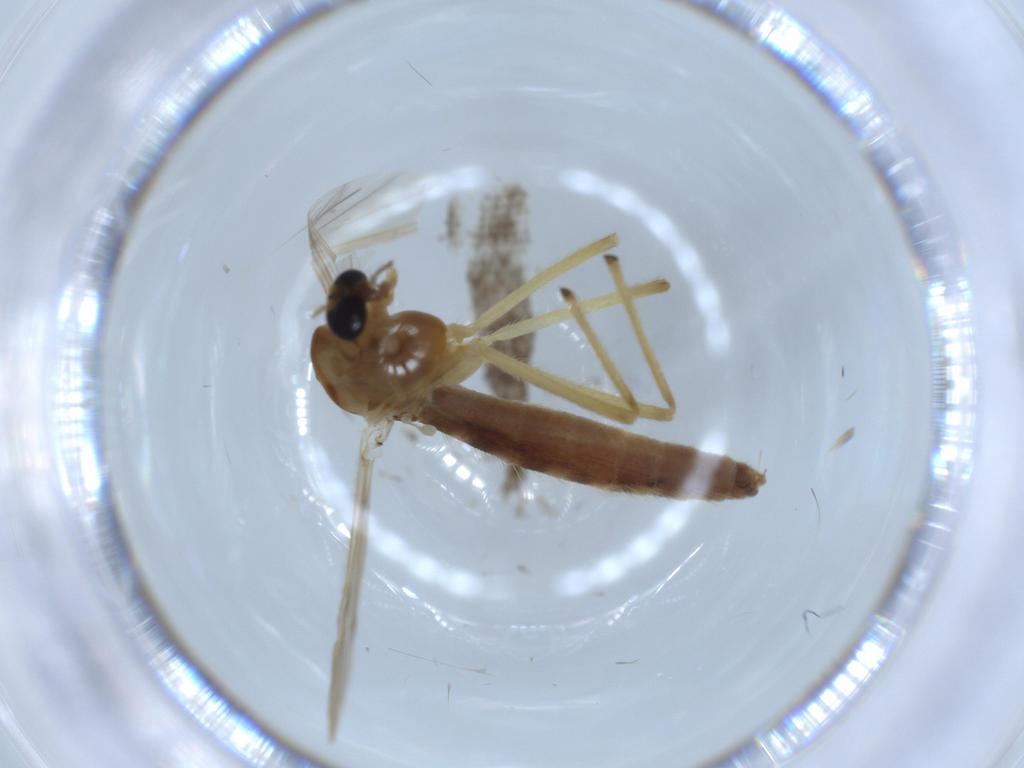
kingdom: Animalia
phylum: Arthropoda
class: Insecta
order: Diptera
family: Chironomidae
